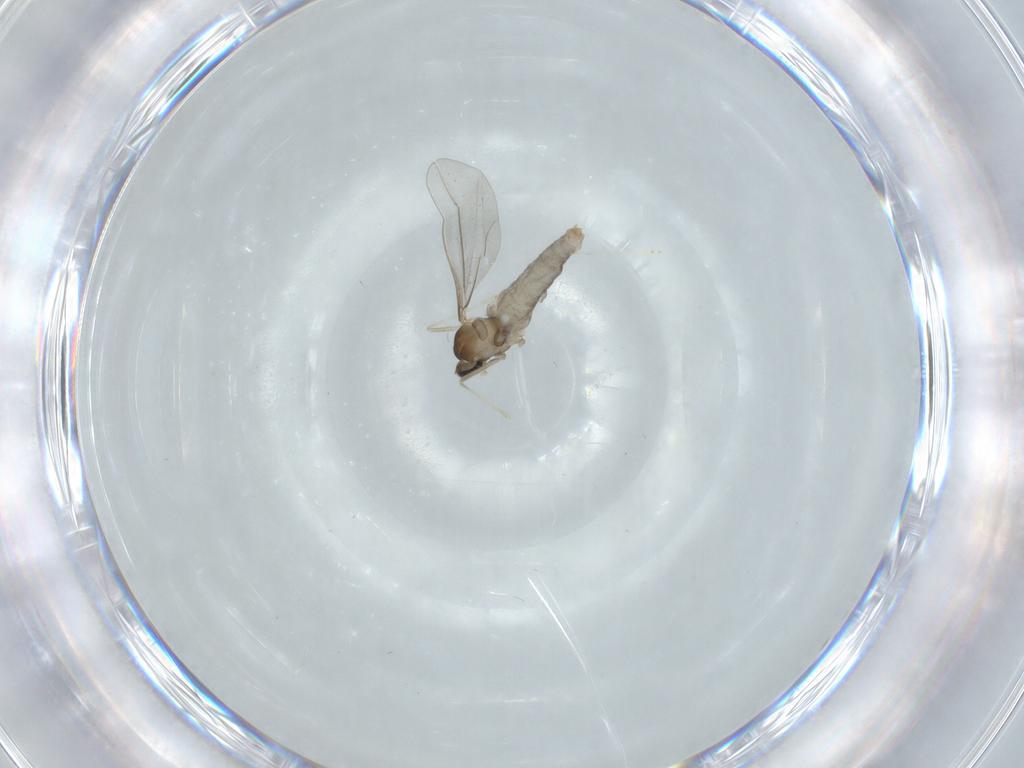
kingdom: Animalia
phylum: Arthropoda
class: Insecta
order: Diptera
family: Cecidomyiidae
